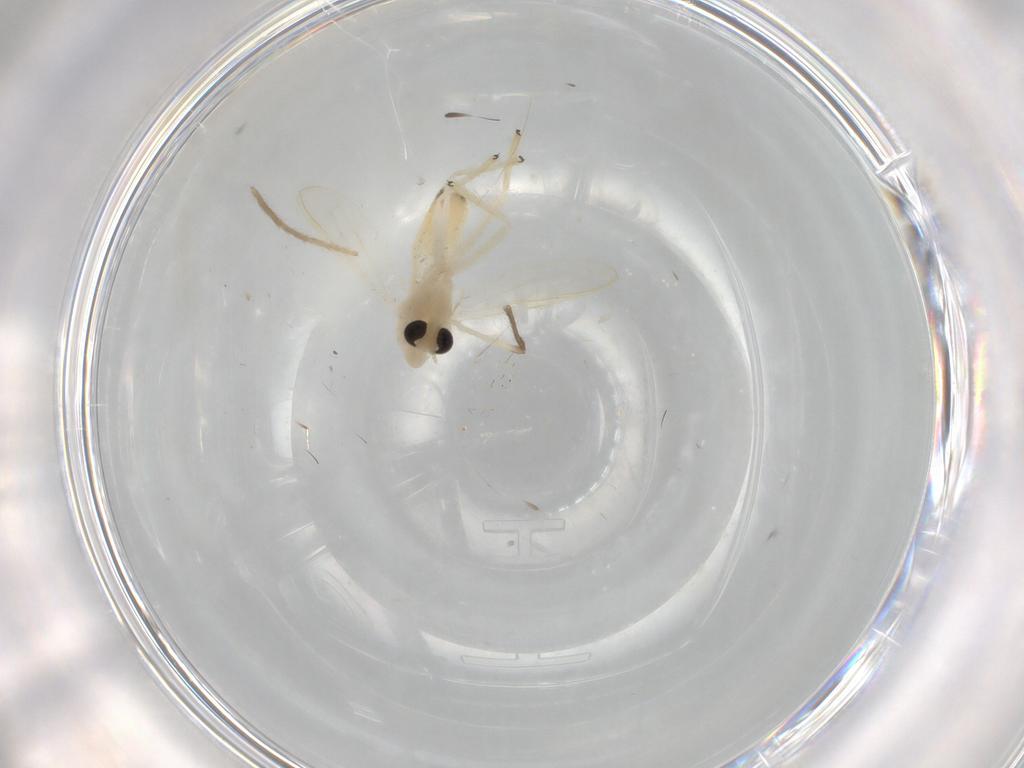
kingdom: Animalia
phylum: Arthropoda
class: Insecta
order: Diptera
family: Chironomidae
